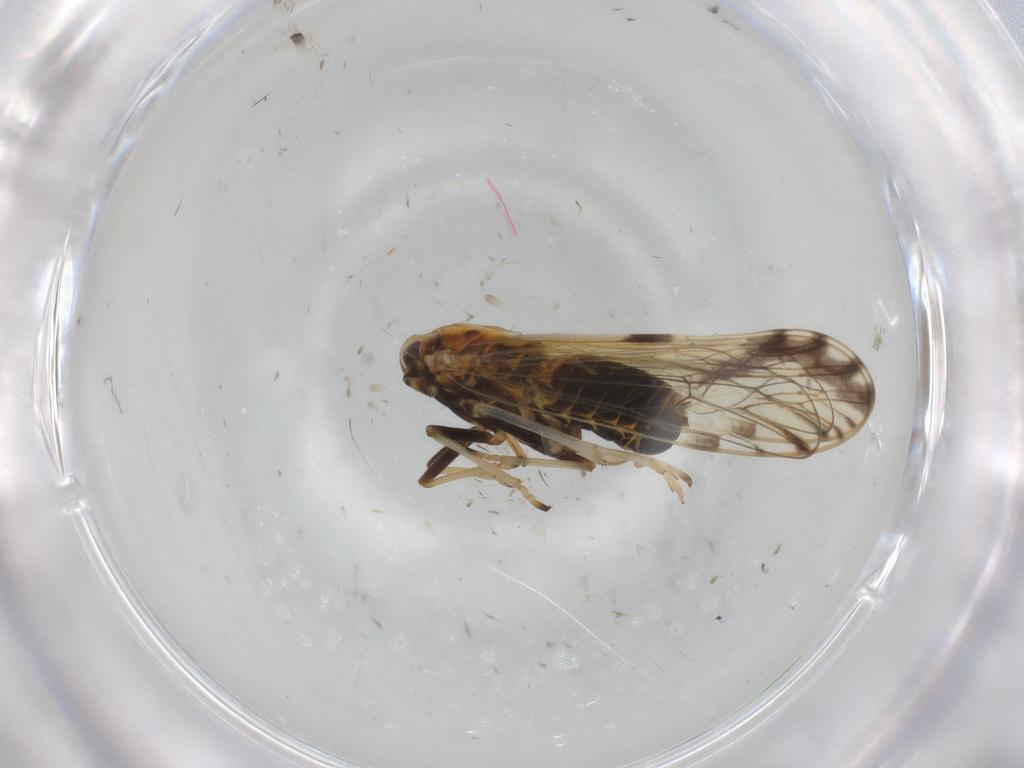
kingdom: Animalia
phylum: Arthropoda
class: Insecta
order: Hemiptera
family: Delphacidae
